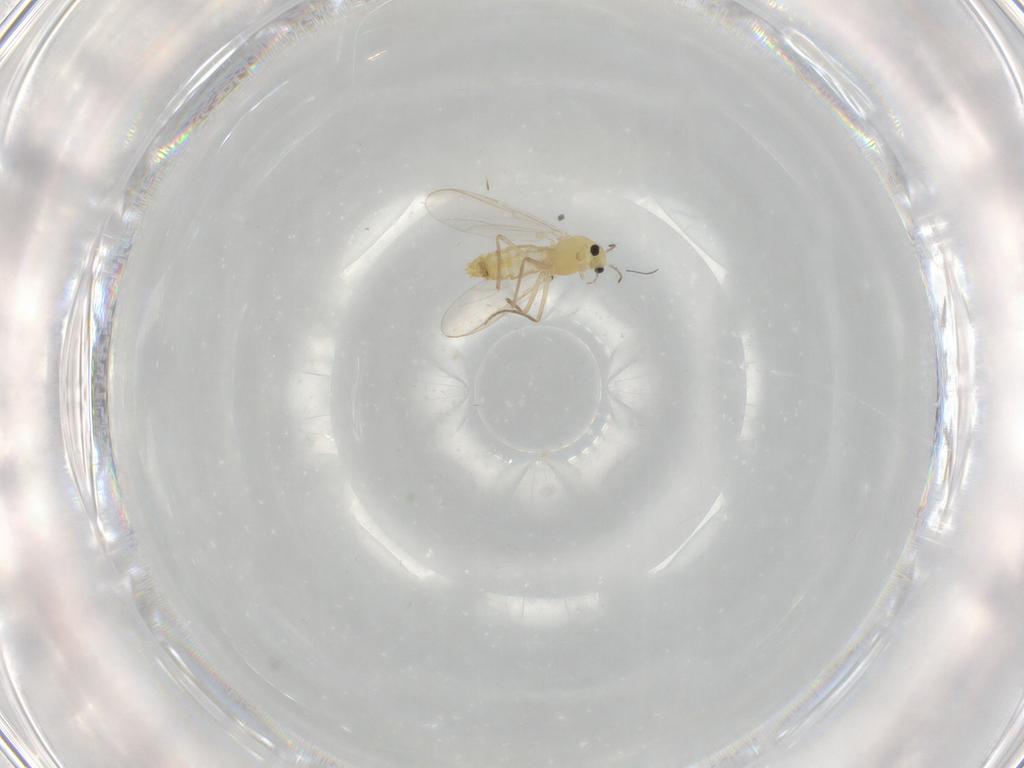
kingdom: Animalia
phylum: Arthropoda
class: Insecta
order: Diptera
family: Chironomidae
